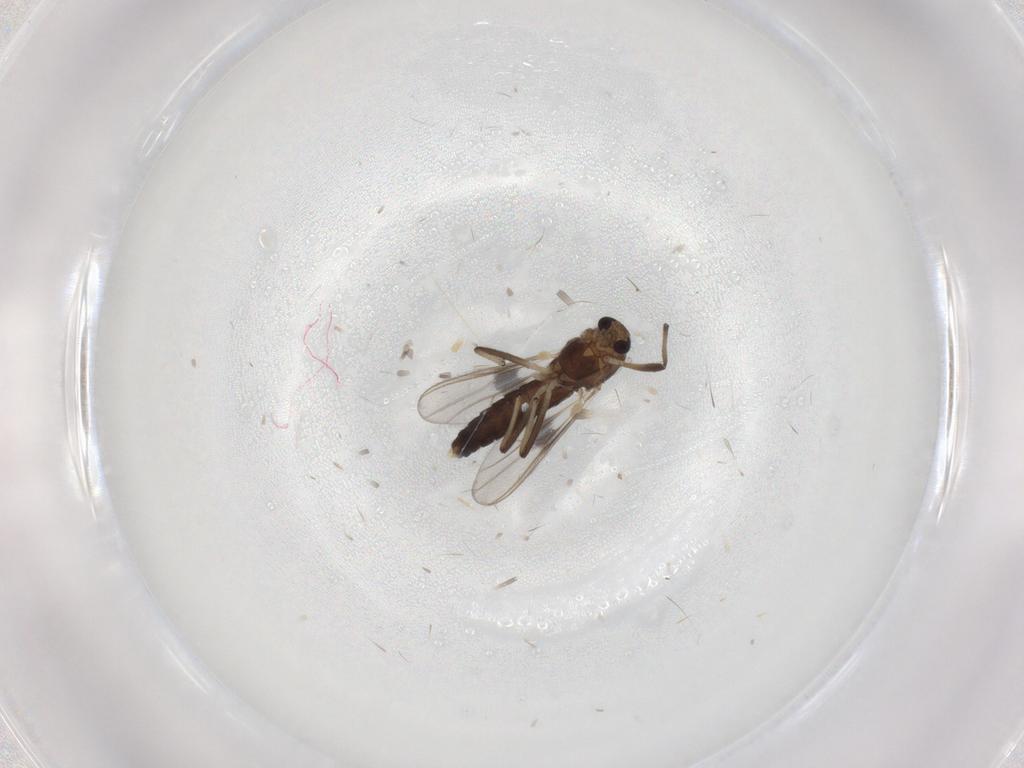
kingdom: Animalia
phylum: Arthropoda
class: Insecta
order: Diptera
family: Chironomidae
